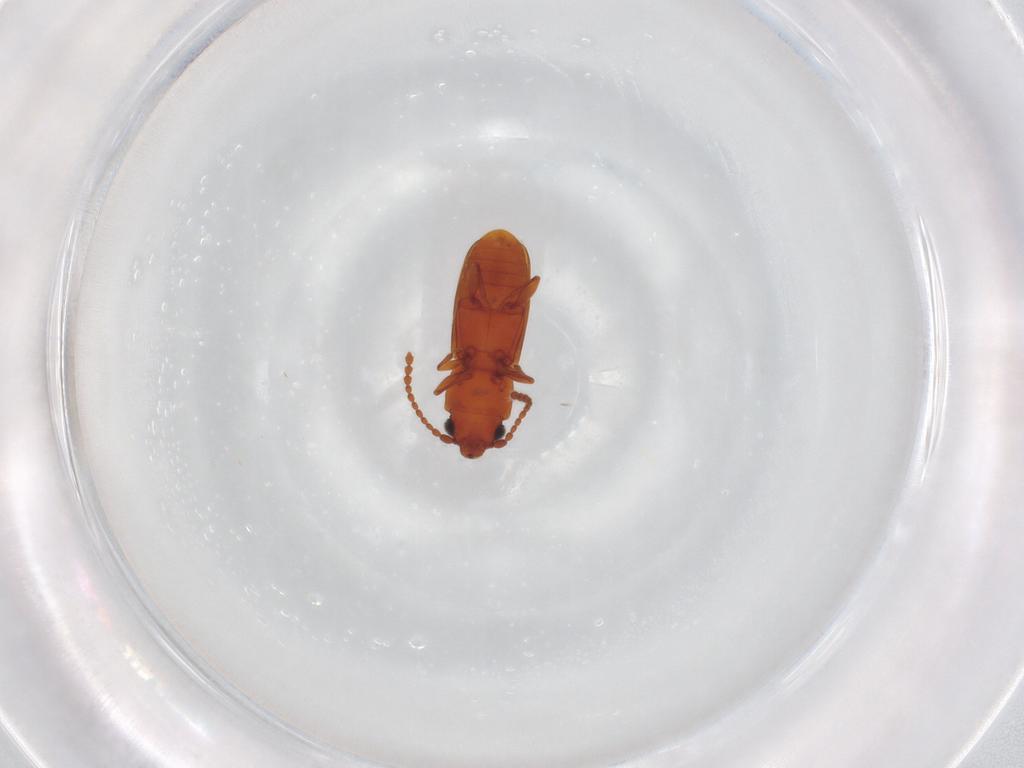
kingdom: Animalia
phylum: Arthropoda
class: Insecta
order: Coleoptera
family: Laemophloeidae
